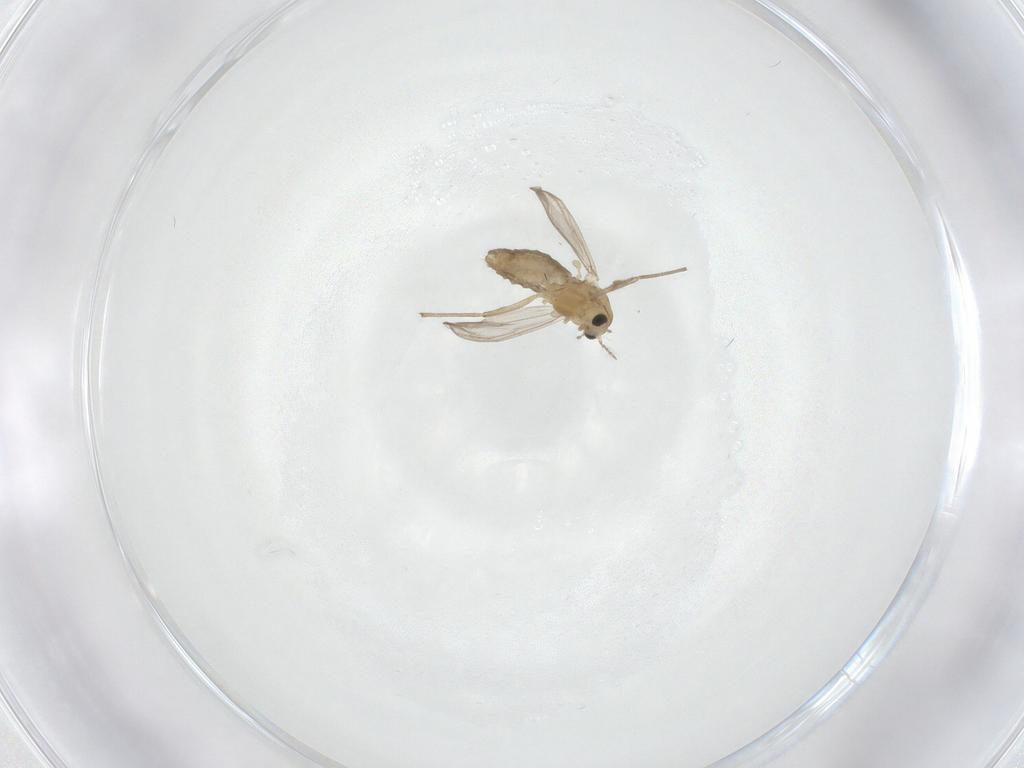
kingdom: Animalia
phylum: Arthropoda
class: Insecta
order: Diptera
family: Chironomidae
